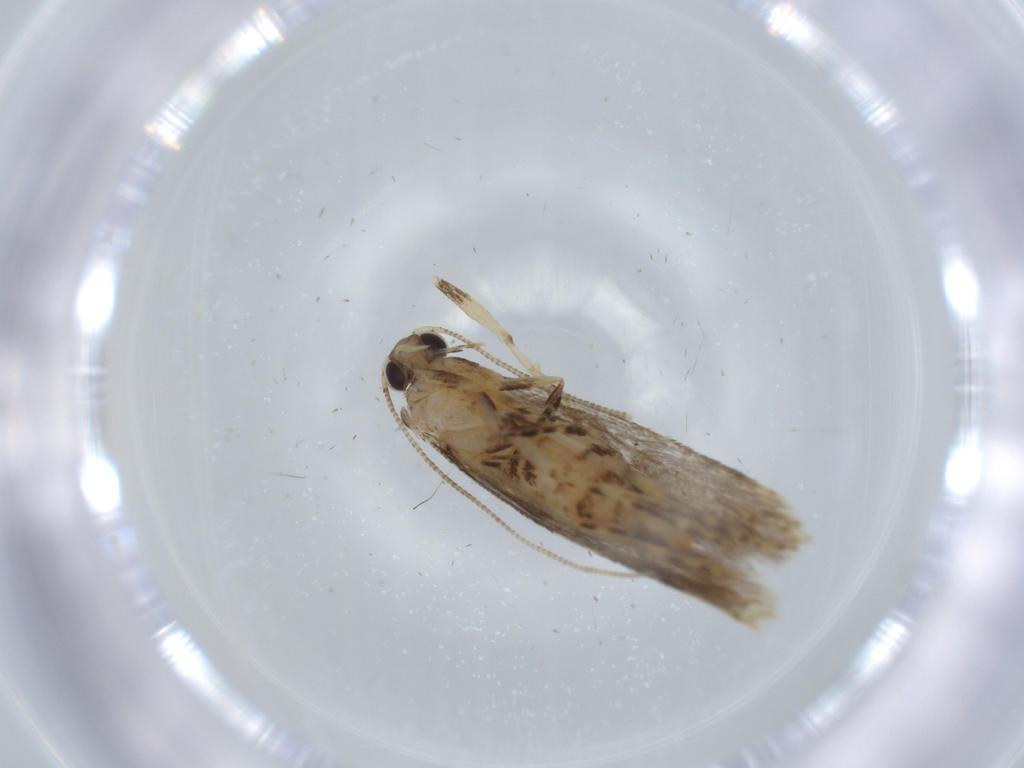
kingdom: Animalia
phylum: Arthropoda
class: Insecta
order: Lepidoptera
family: Tineidae
